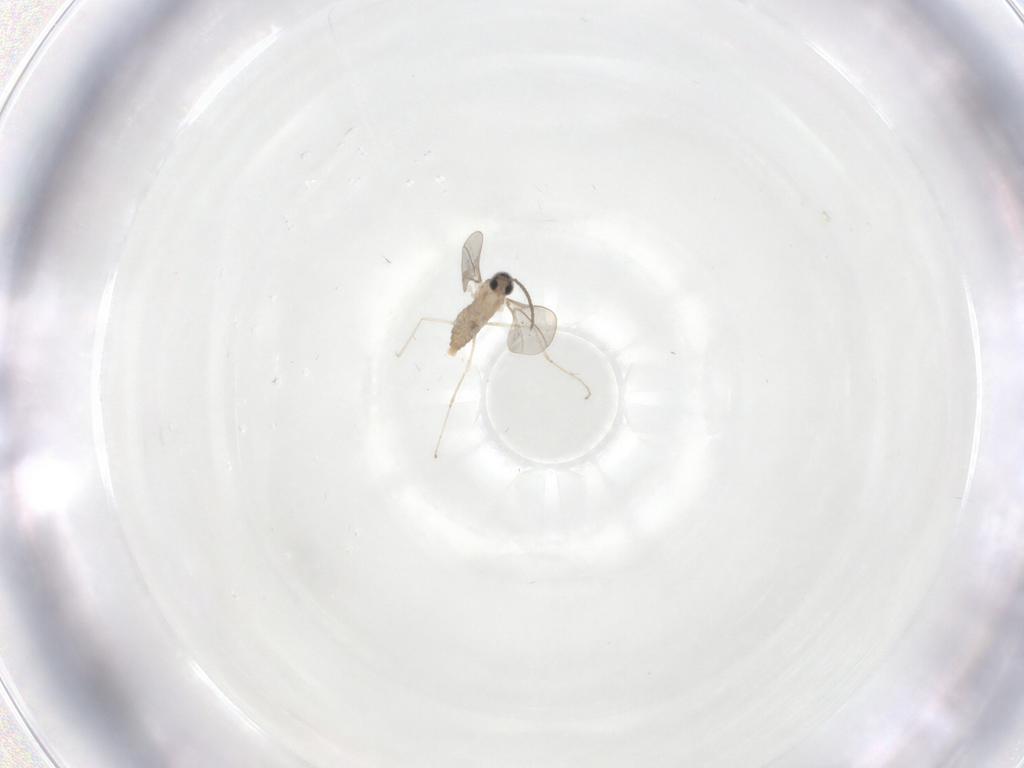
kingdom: Animalia
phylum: Arthropoda
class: Insecta
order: Diptera
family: Cecidomyiidae
